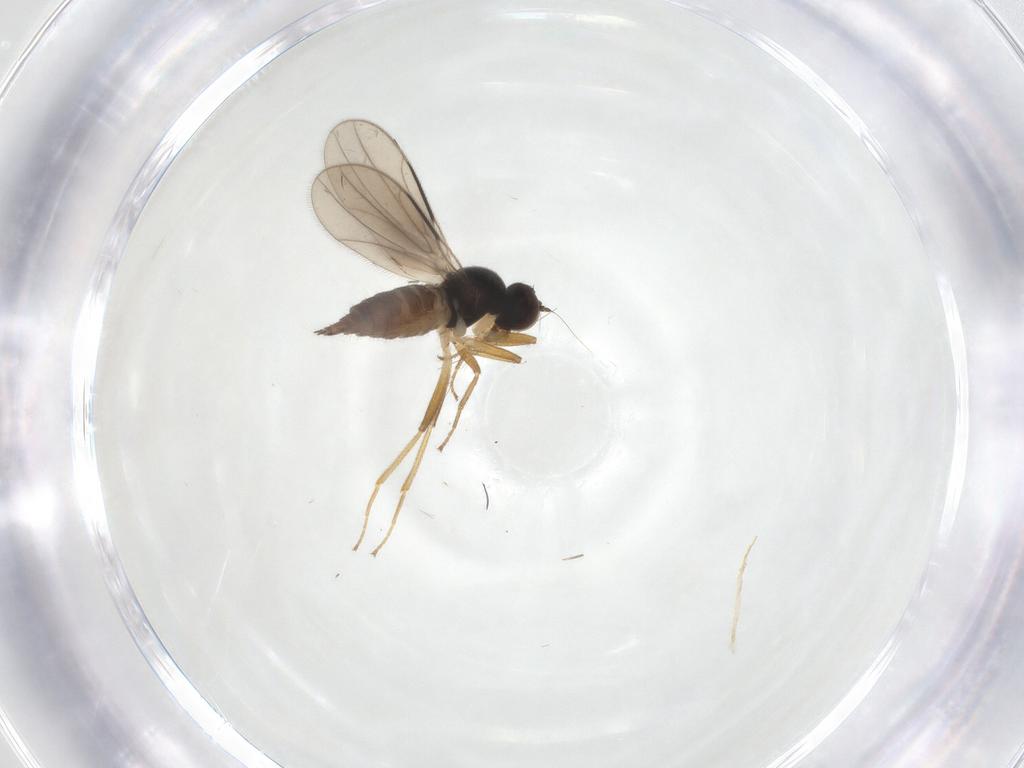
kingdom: Animalia
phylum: Arthropoda
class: Insecta
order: Diptera
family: Hybotidae
